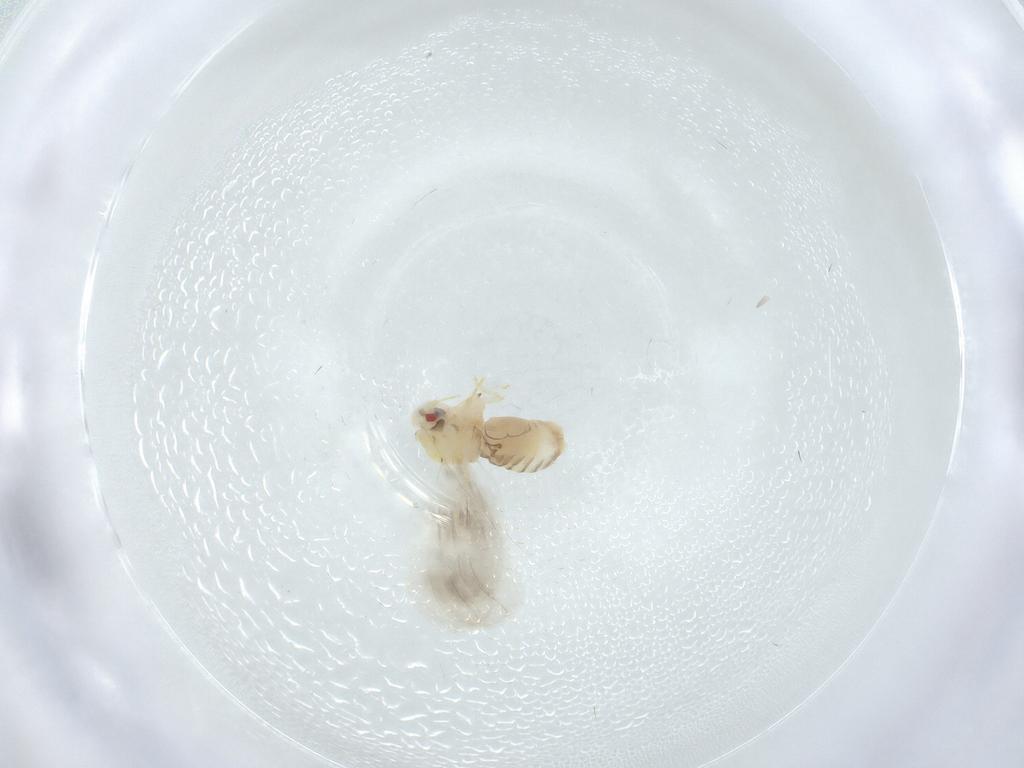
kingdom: Animalia
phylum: Arthropoda
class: Insecta
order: Hemiptera
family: Aleyrodidae
